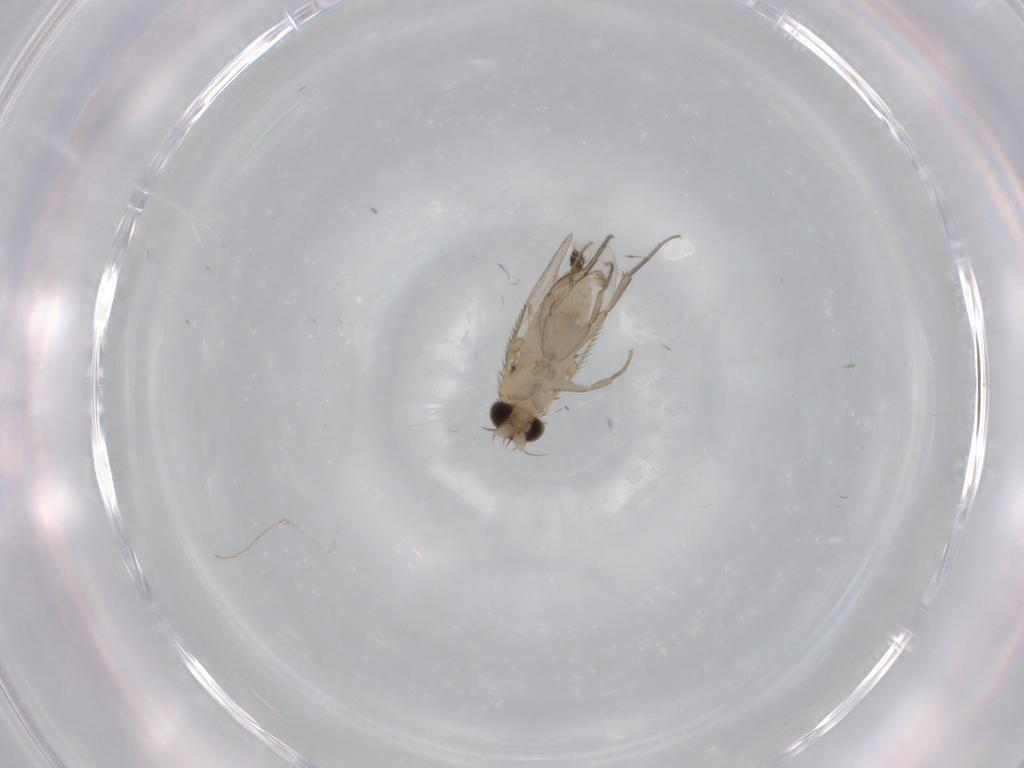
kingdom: Animalia
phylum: Arthropoda
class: Insecta
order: Diptera
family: Phoridae
